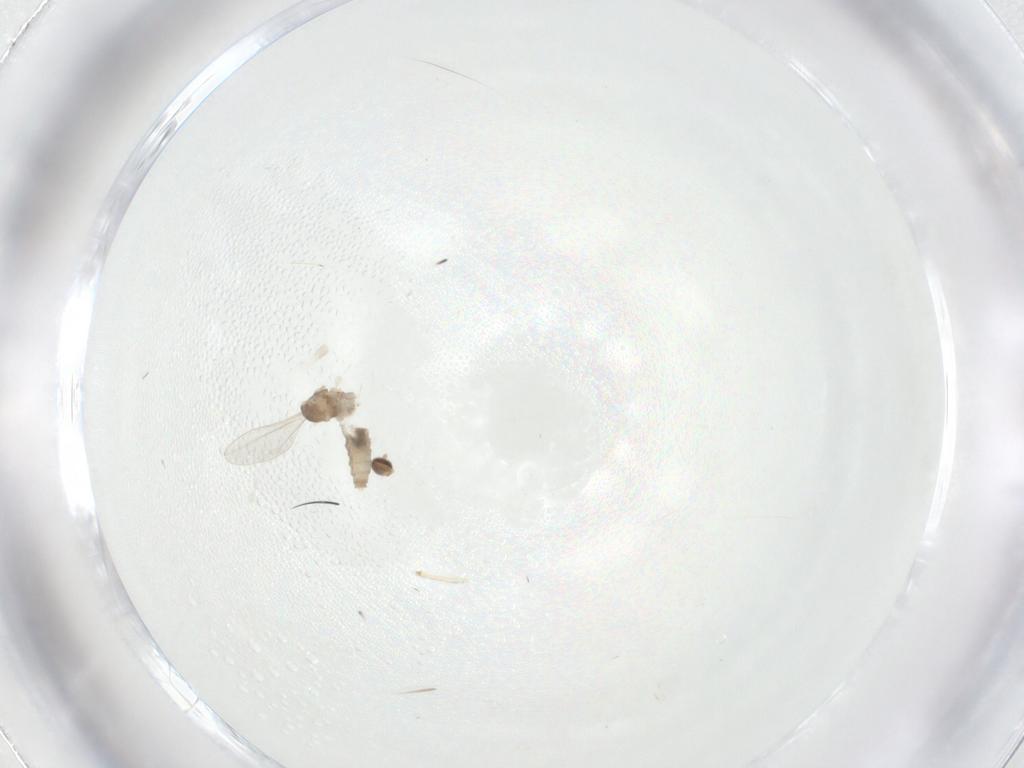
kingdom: Animalia
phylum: Arthropoda
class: Insecta
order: Diptera
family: Cecidomyiidae
